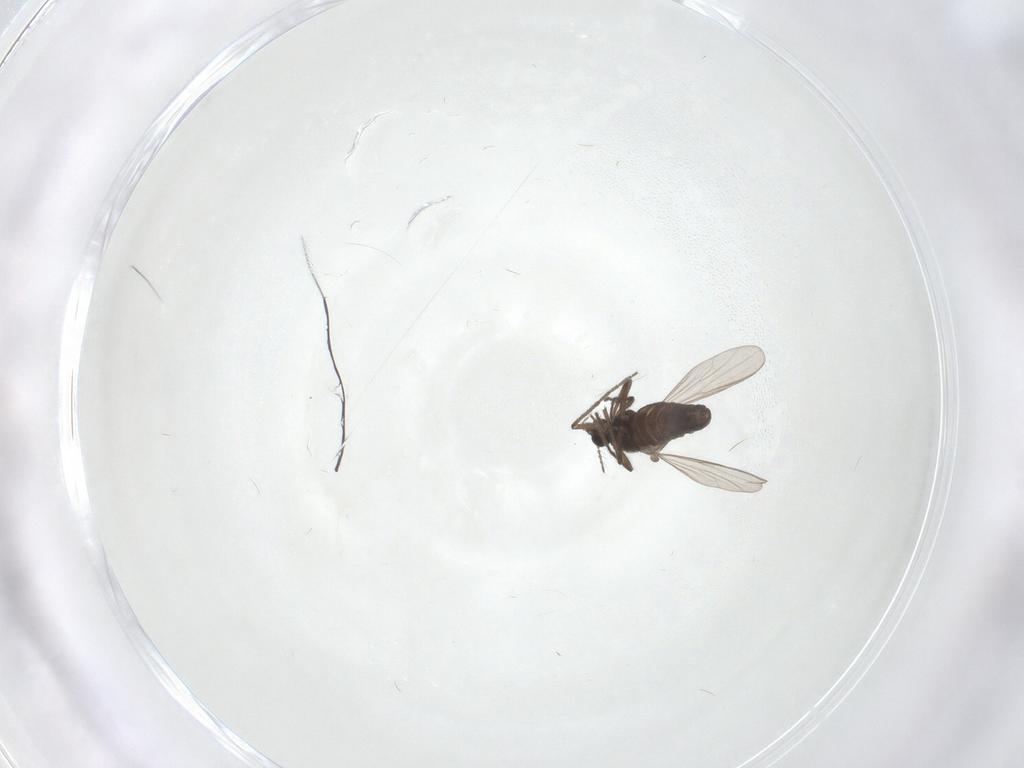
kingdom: Animalia
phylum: Arthropoda
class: Insecta
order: Diptera
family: Chironomidae
